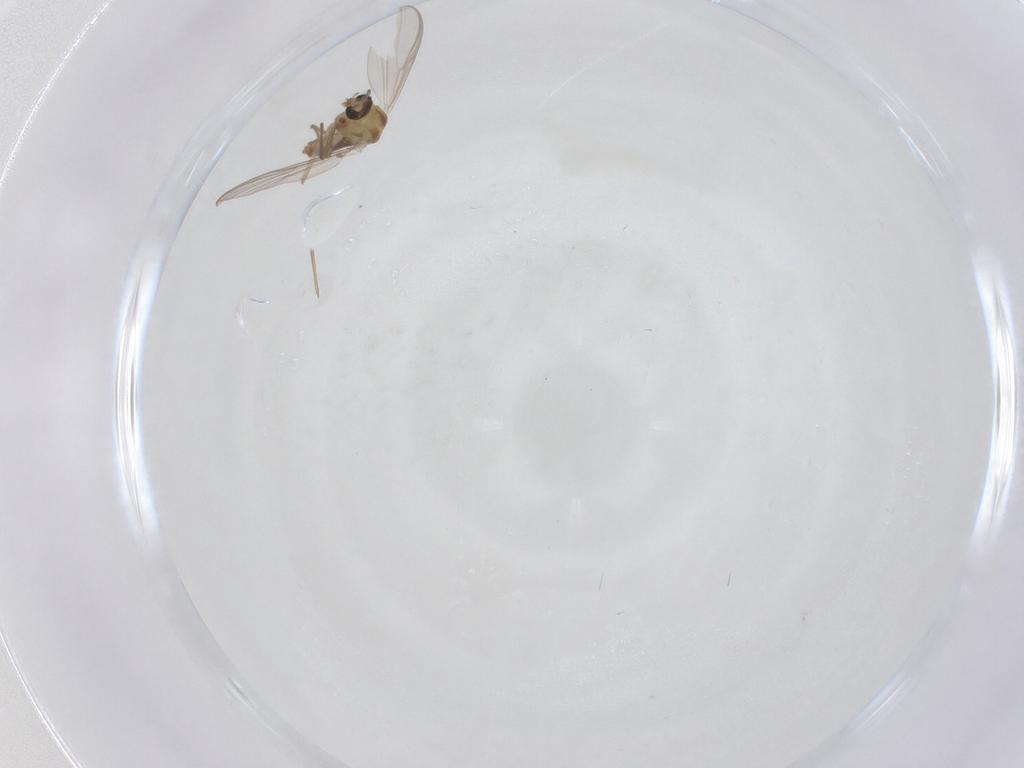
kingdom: Animalia
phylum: Arthropoda
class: Insecta
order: Diptera
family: Chironomidae
